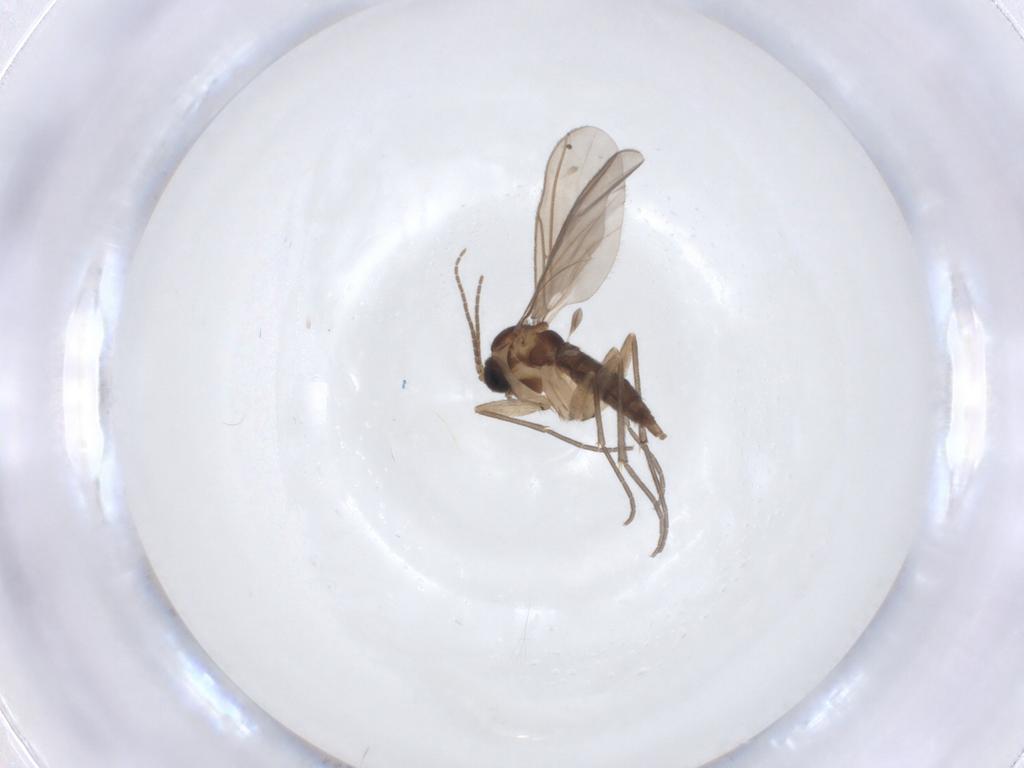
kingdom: Animalia
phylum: Arthropoda
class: Insecta
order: Diptera
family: Sciaridae
